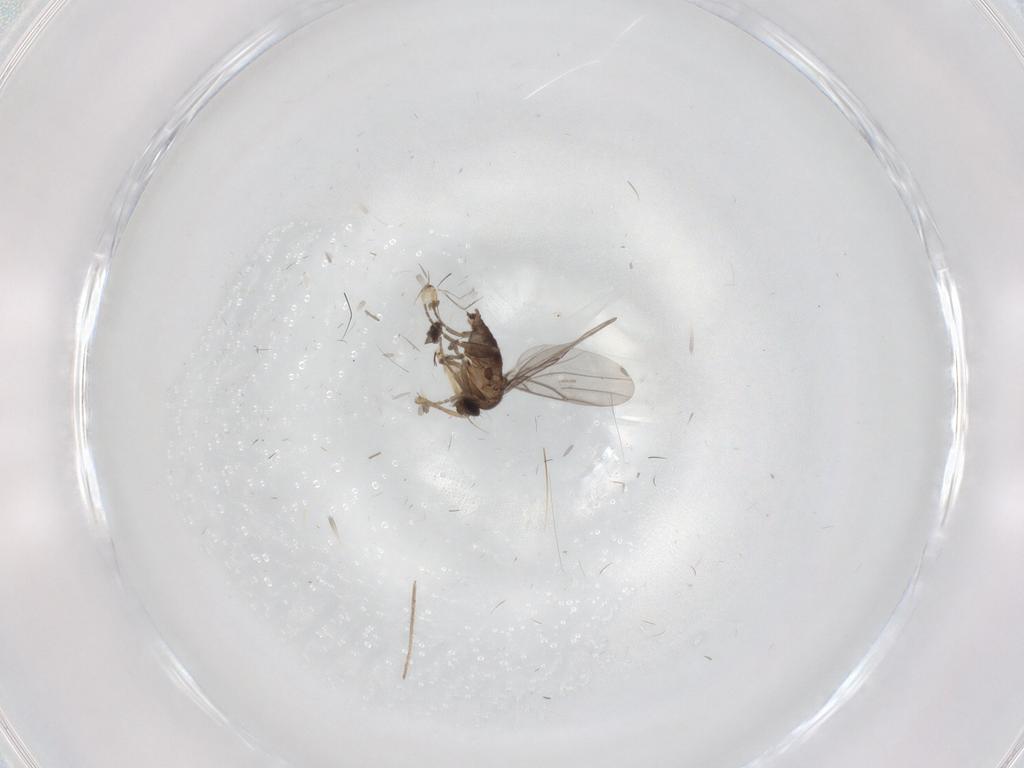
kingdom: Animalia
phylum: Arthropoda
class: Insecta
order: Diptera
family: Phoridae
